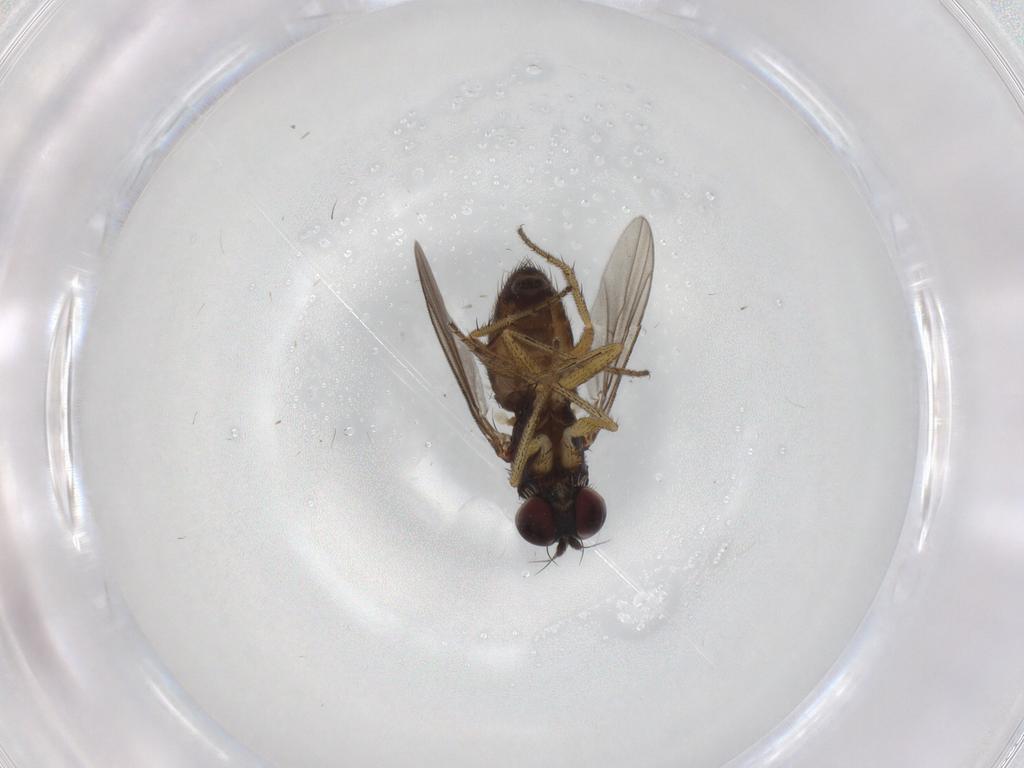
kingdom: Animalia
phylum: Arthropoda
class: Insecta
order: Diptera
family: Dolichopodidae
